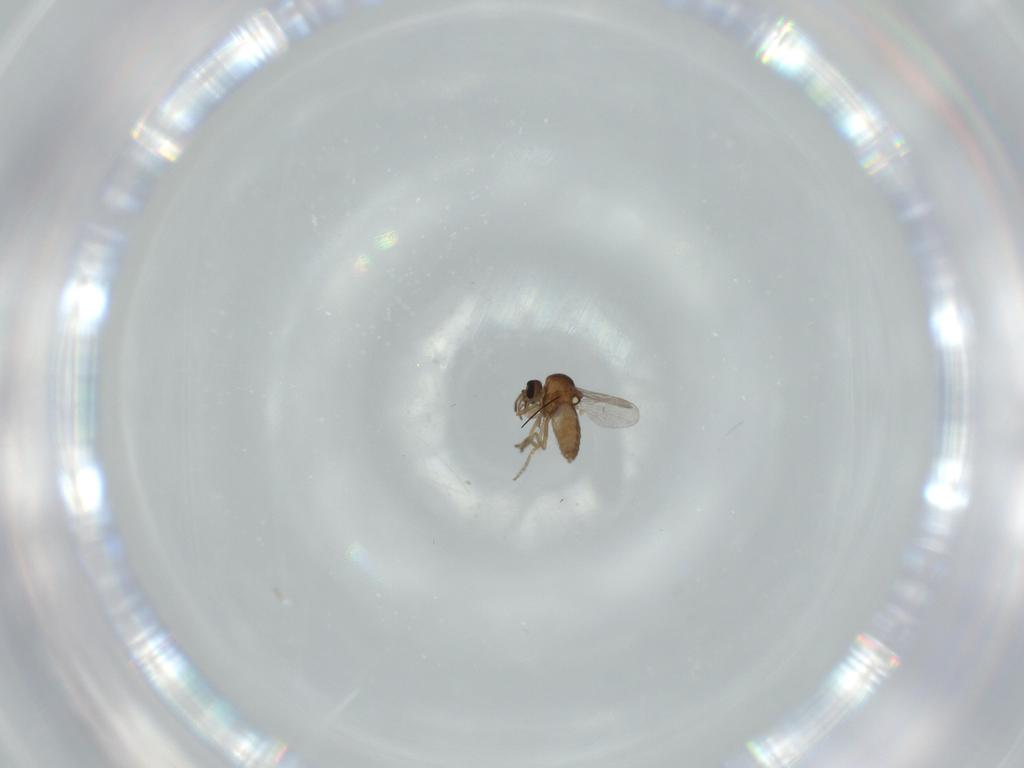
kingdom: Animalia
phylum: Arthropoda
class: Insecta
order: Diptera
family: Ceratopogonidae
